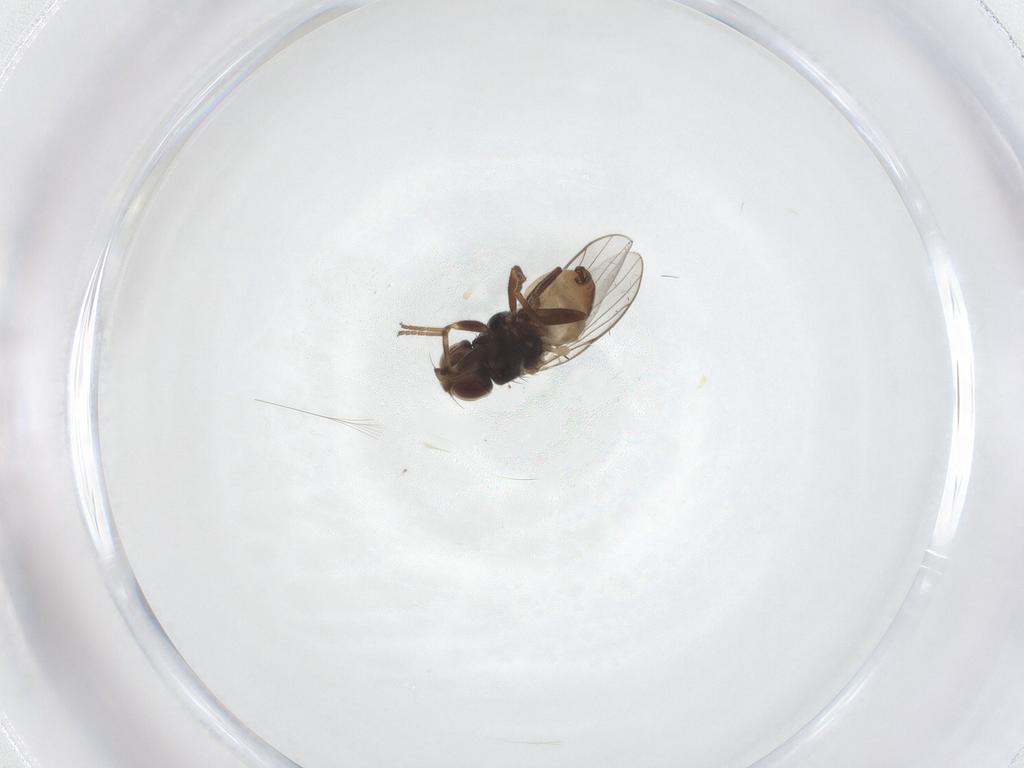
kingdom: Animalia
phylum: Arthropoda
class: Insecta
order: Diptera
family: Chloropidae
